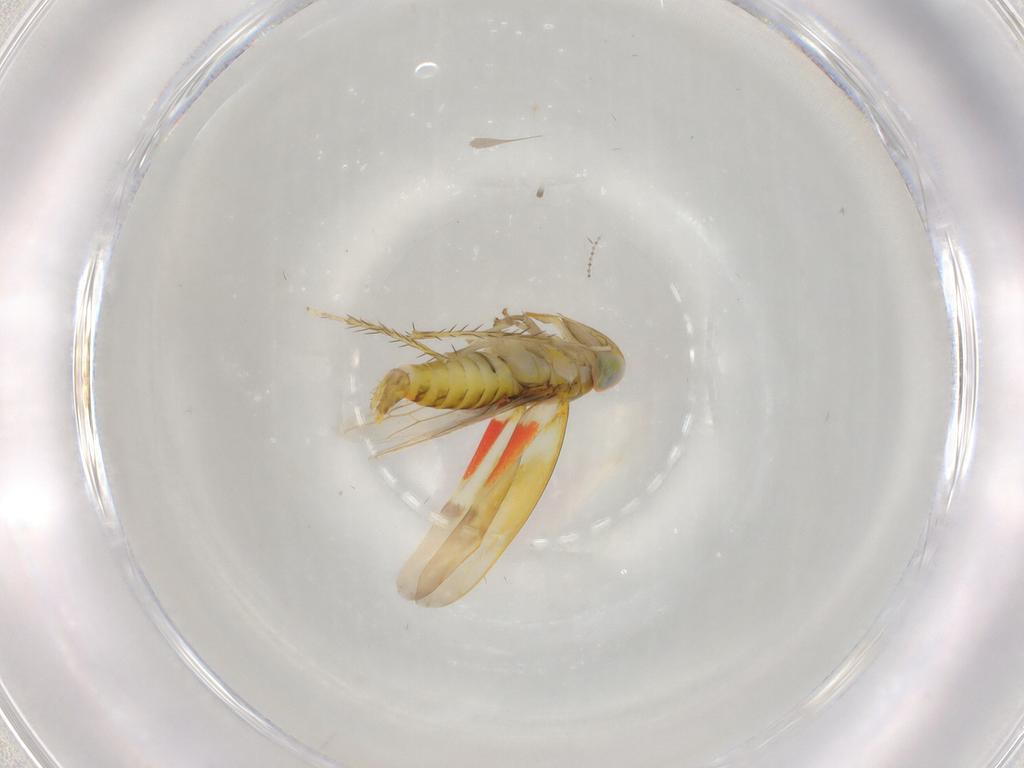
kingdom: Animalia
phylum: Arthropoda
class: Insecta
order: Hemiptera
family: Cicadellidae
